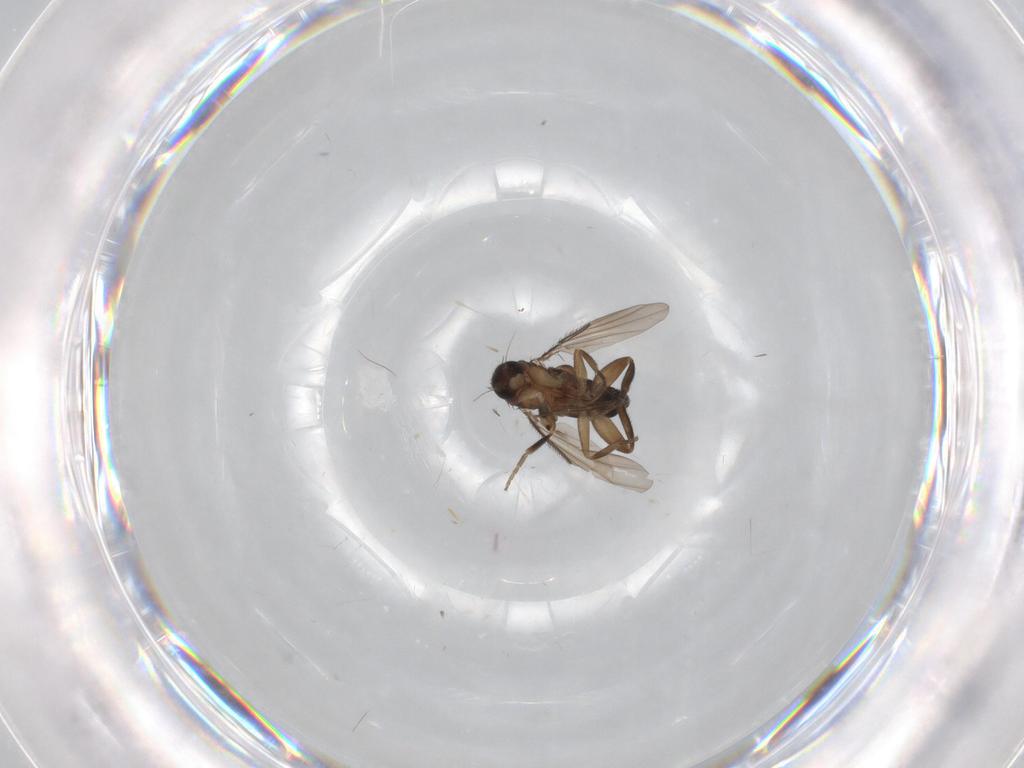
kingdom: Animalia
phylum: Arthropoda
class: Insecta
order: Diptera
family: Phoridae
